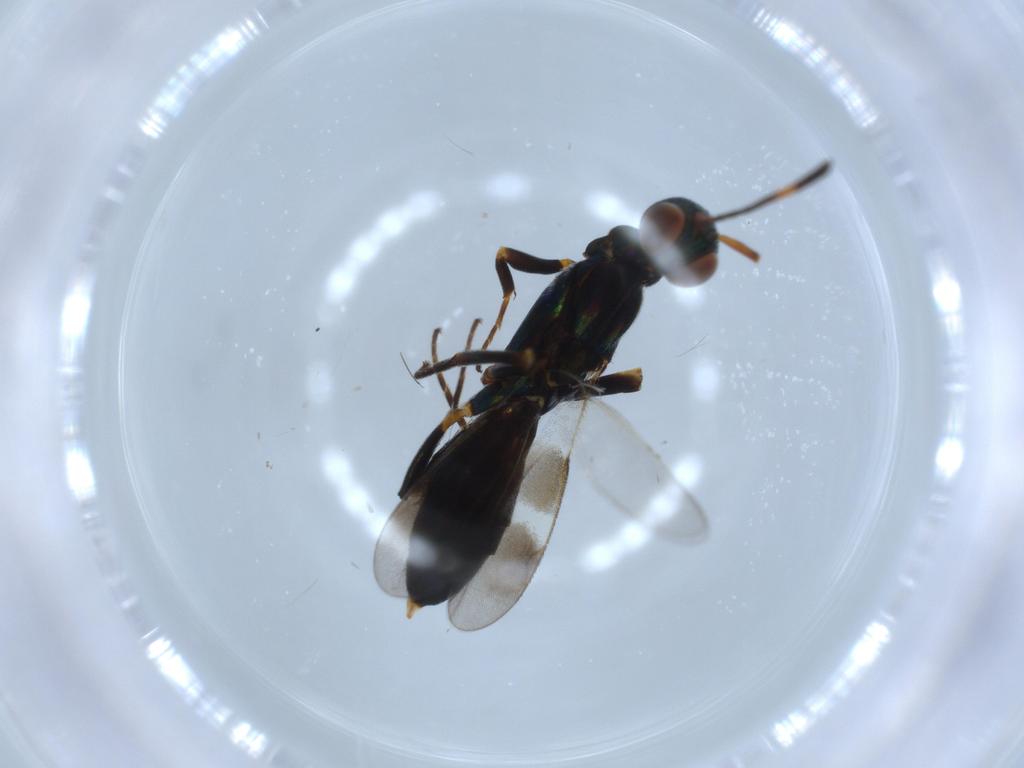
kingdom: Animalia
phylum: Arthropoda
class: Insecta
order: Hymenoptera
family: Eupelmidae
